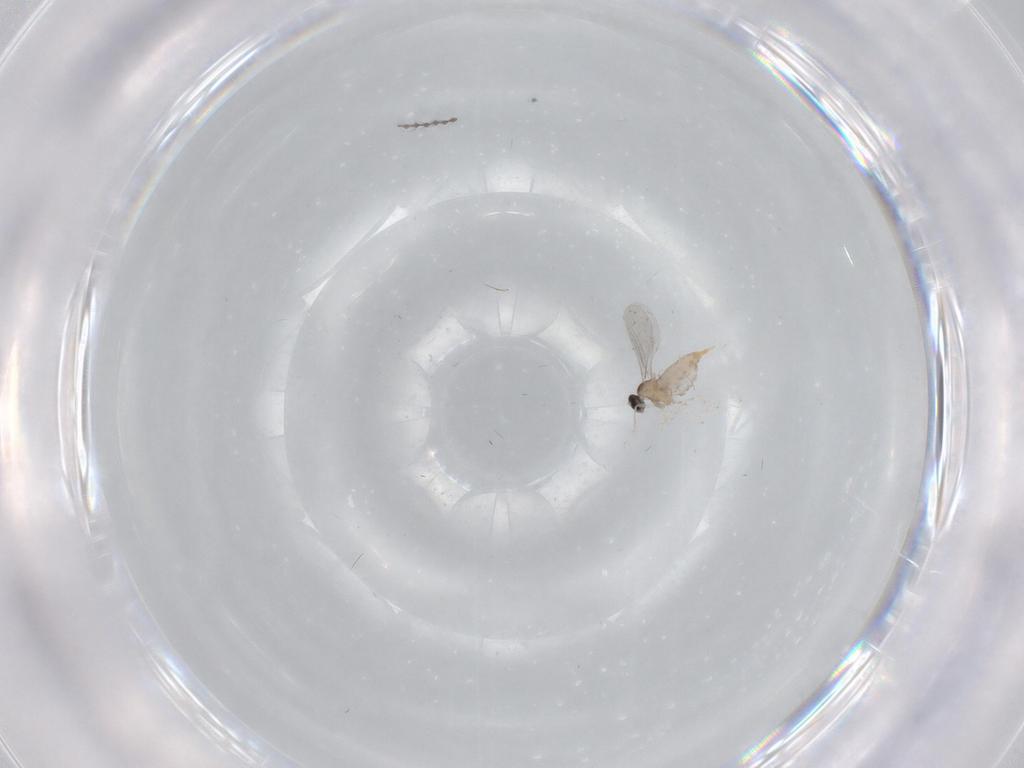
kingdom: Animalia
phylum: Arthropoda
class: Insecta
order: Diptera
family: Cecidomyiidae
